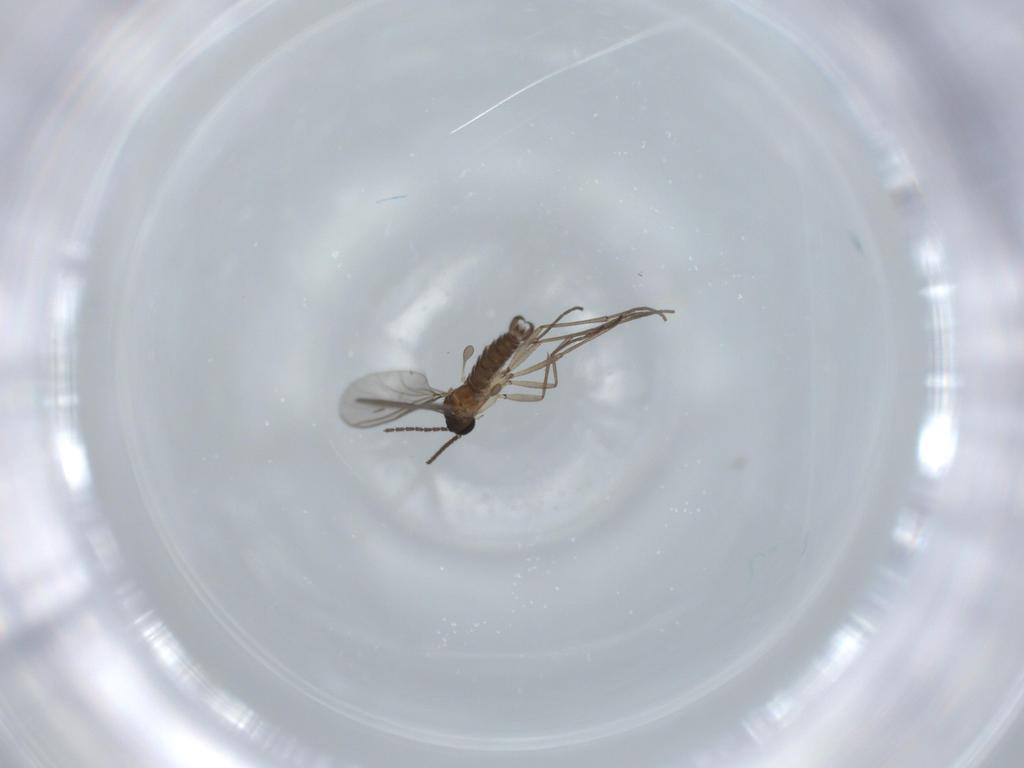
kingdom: Animalia
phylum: Arthropoda
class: Insecta
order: Diptera
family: Sciaridae
